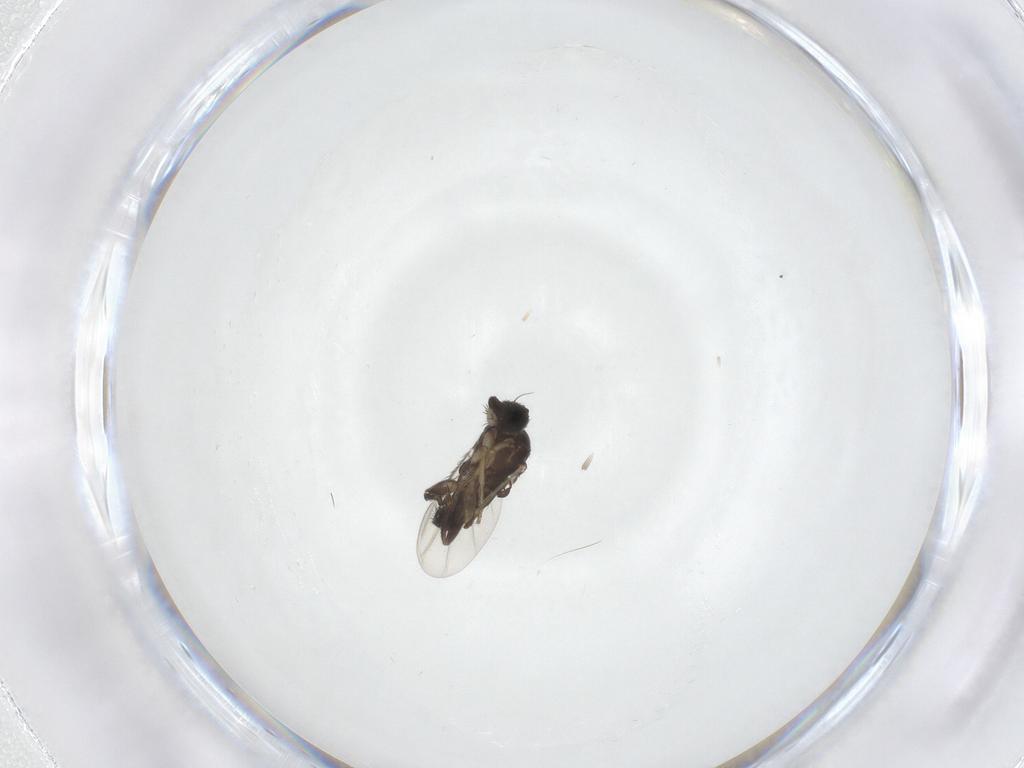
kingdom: Animalia
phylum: Arthropoda
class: Insecta
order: Diptera
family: Phoridae
